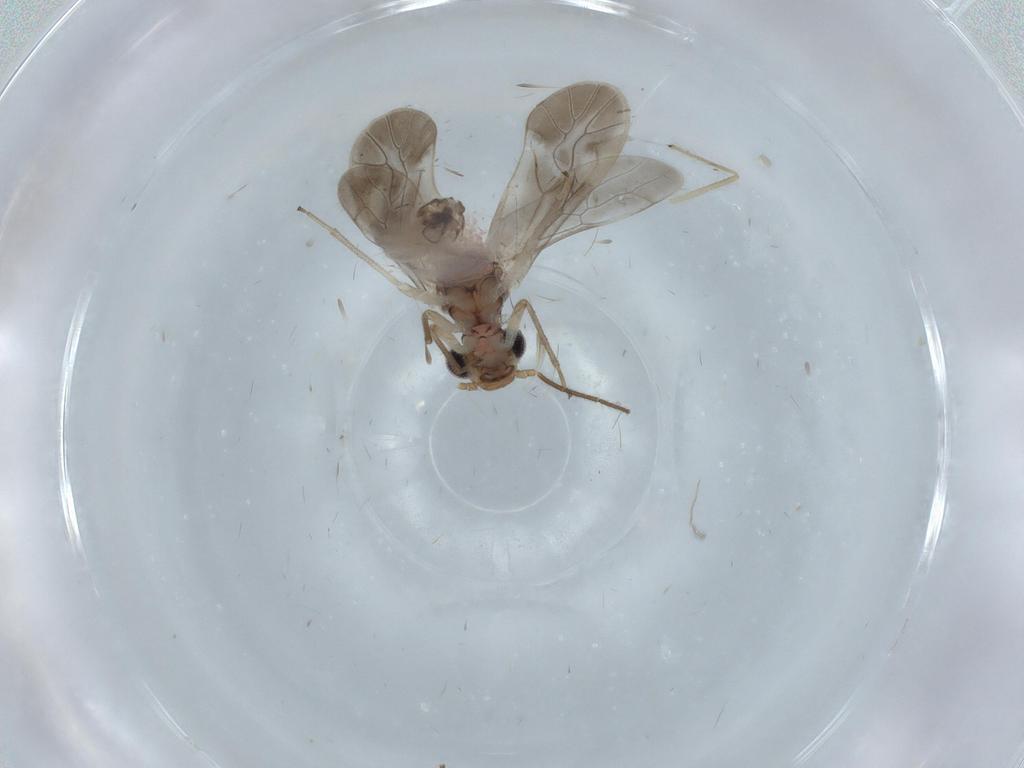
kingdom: Animalia
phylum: Arthropoda
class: Insecta
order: Psocodea
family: Caeciliusidae
